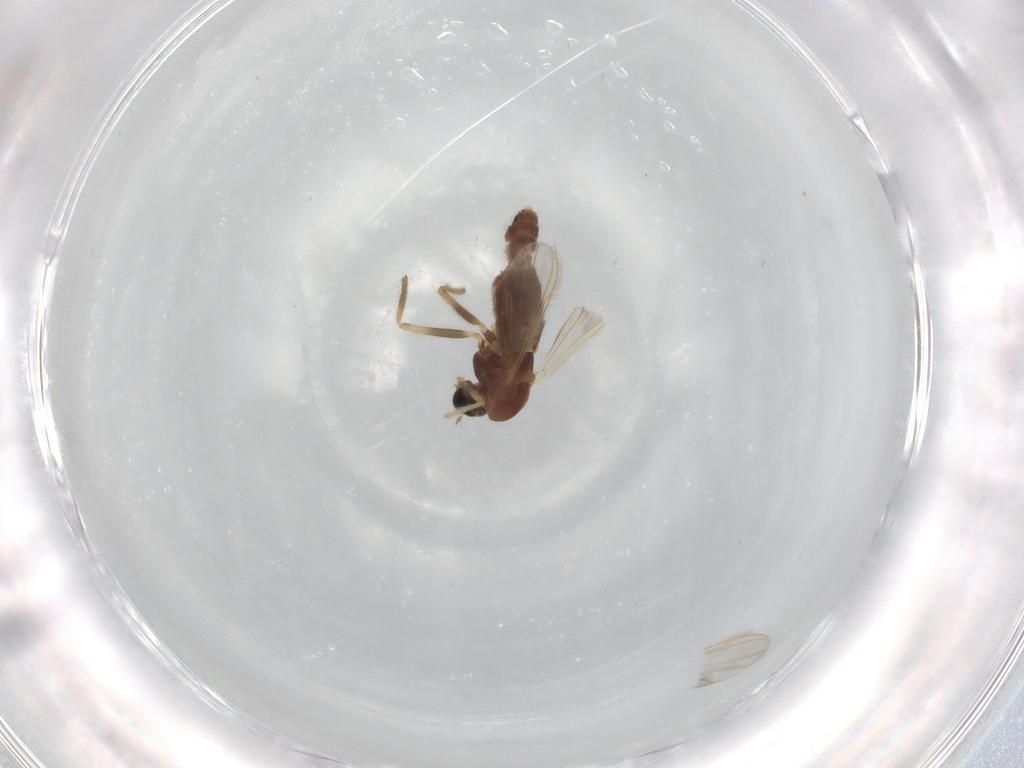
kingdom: Animalia
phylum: Arthropoda
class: Insecta
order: Diptera
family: Chironomidae
